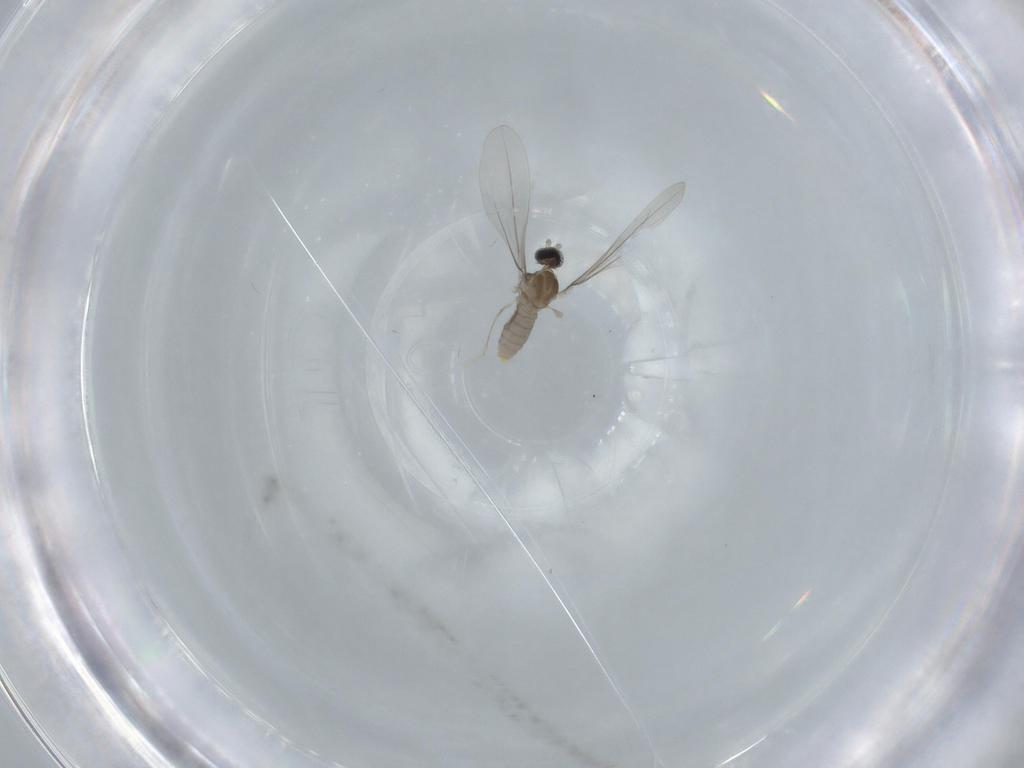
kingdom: Animalia
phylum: Arthropoda
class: Insecta
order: Diptera
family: Cecidomyiidae
